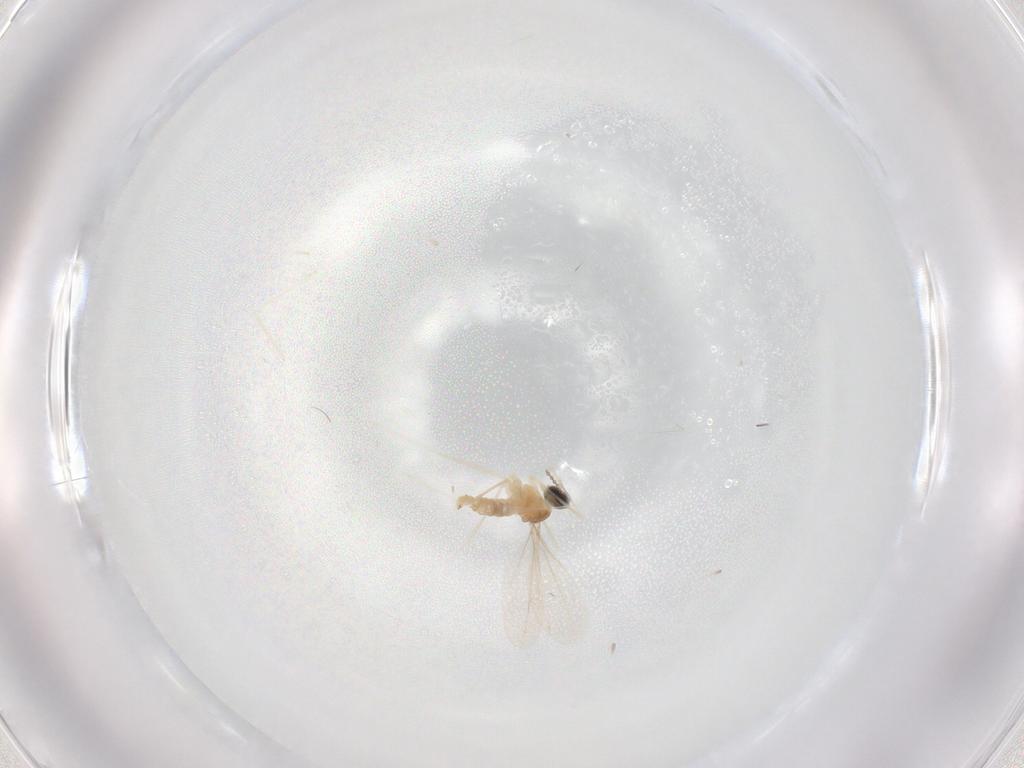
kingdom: Animalia
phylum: Arthropoda
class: Insecta
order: Diptera
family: Cecidomyiidae
